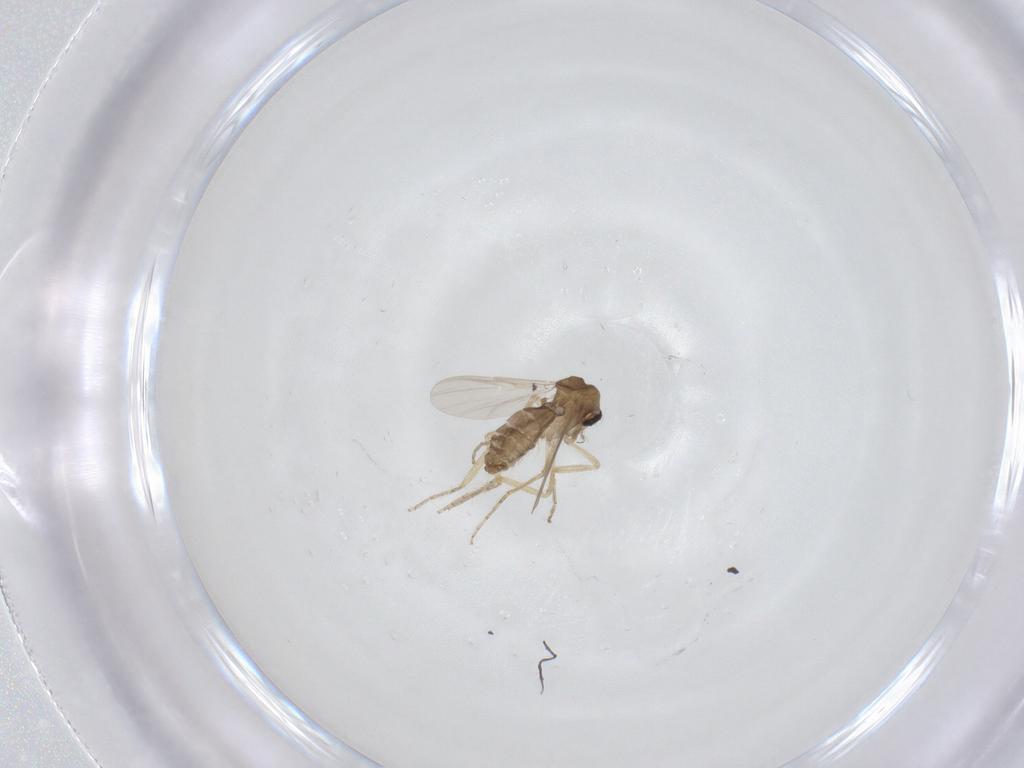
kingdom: Animalia
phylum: Arthropoda
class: Insecta
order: Diptera
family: Ceratopogonidae
